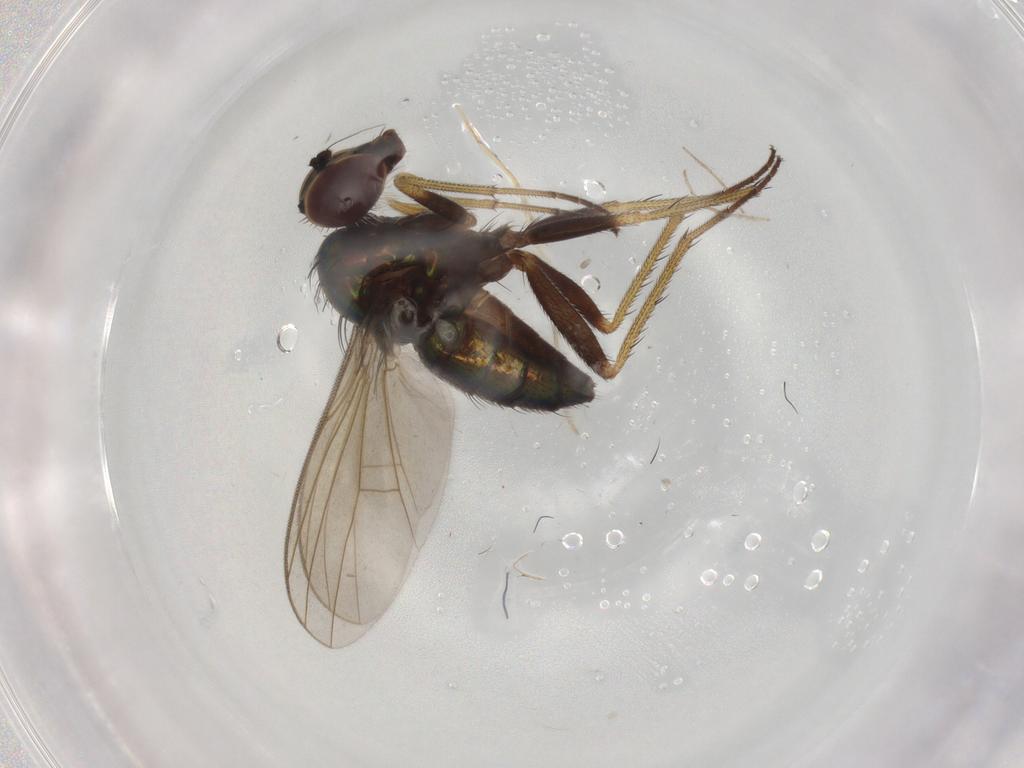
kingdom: Animalia
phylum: Arthropoda
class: Insecta
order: Diptera
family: Dolichopodidae
